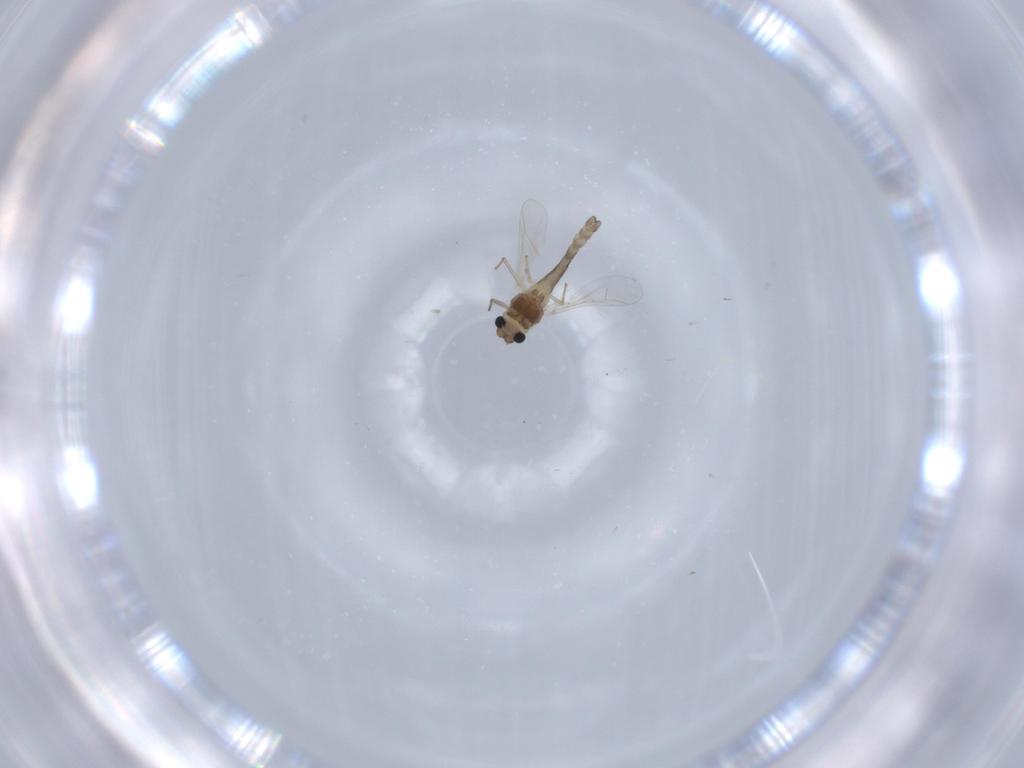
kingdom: Animalia
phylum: Arthropoda
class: Insecta
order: Diptera
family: Chironomidae
